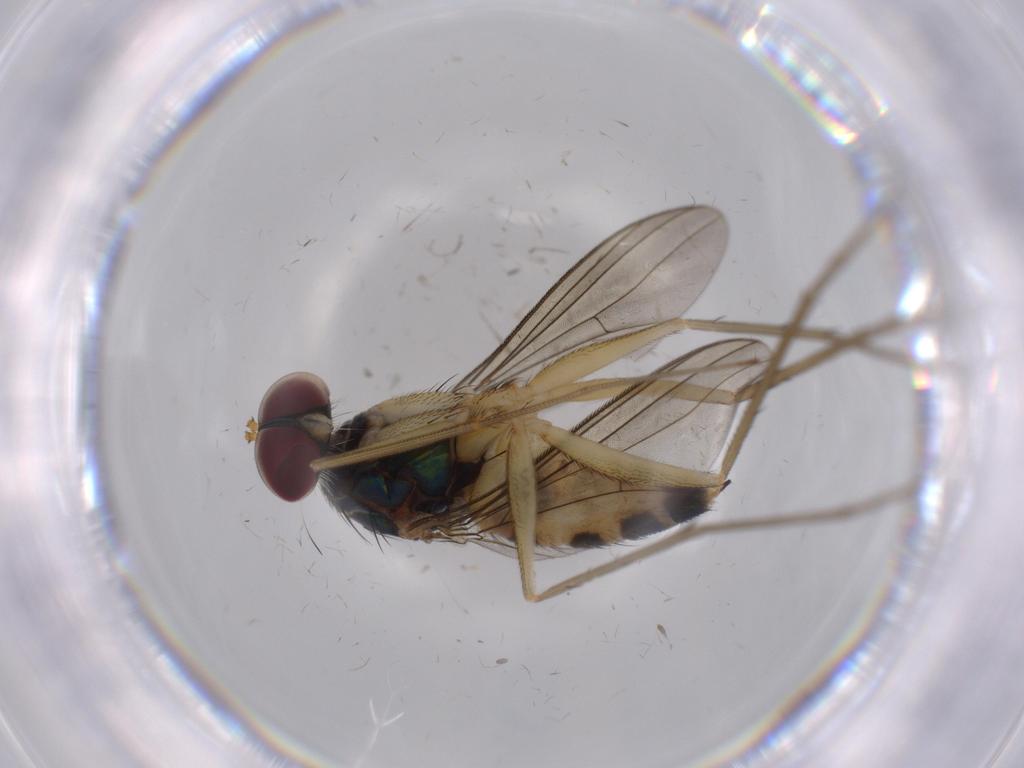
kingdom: Animalia
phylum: Arthropoda
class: Insecta
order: Diptera
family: Dolichopodidae
